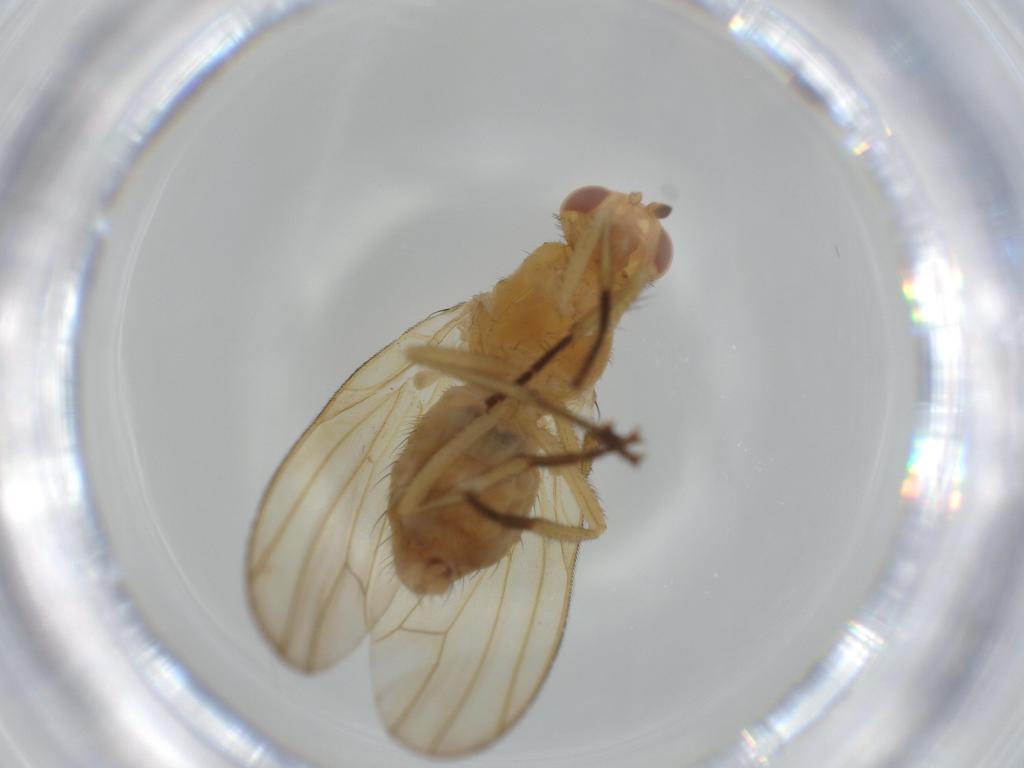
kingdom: Animalia
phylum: Arthropoda
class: Insecta
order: Diptera
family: Lauxaniidae
